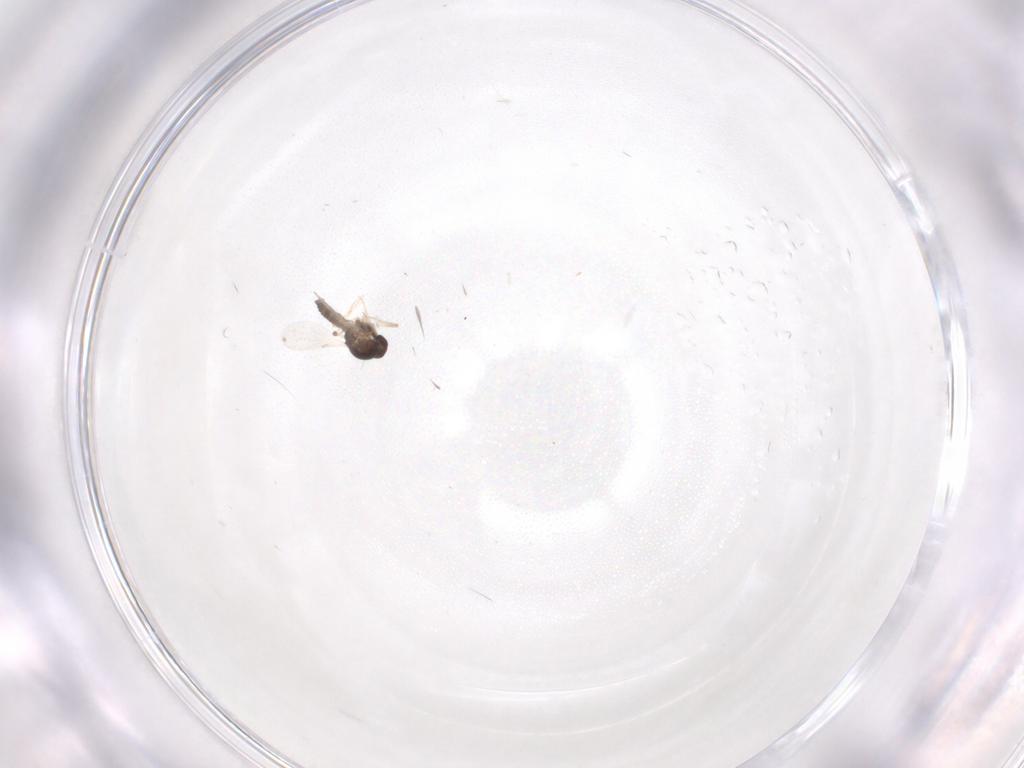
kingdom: Animalia
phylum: Arthropoda
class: Insecta
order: Diptera
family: Ceratopogonidae
